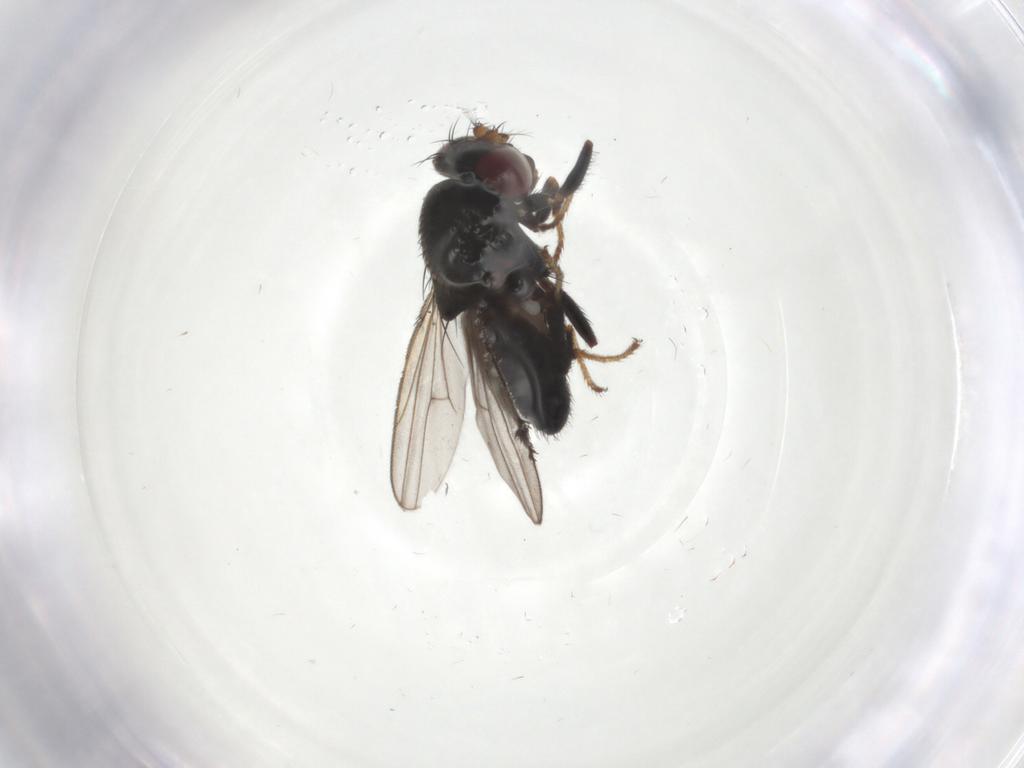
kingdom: Animalia
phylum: Arthropoda
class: Insecta
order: Diptera
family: Ephydridae
